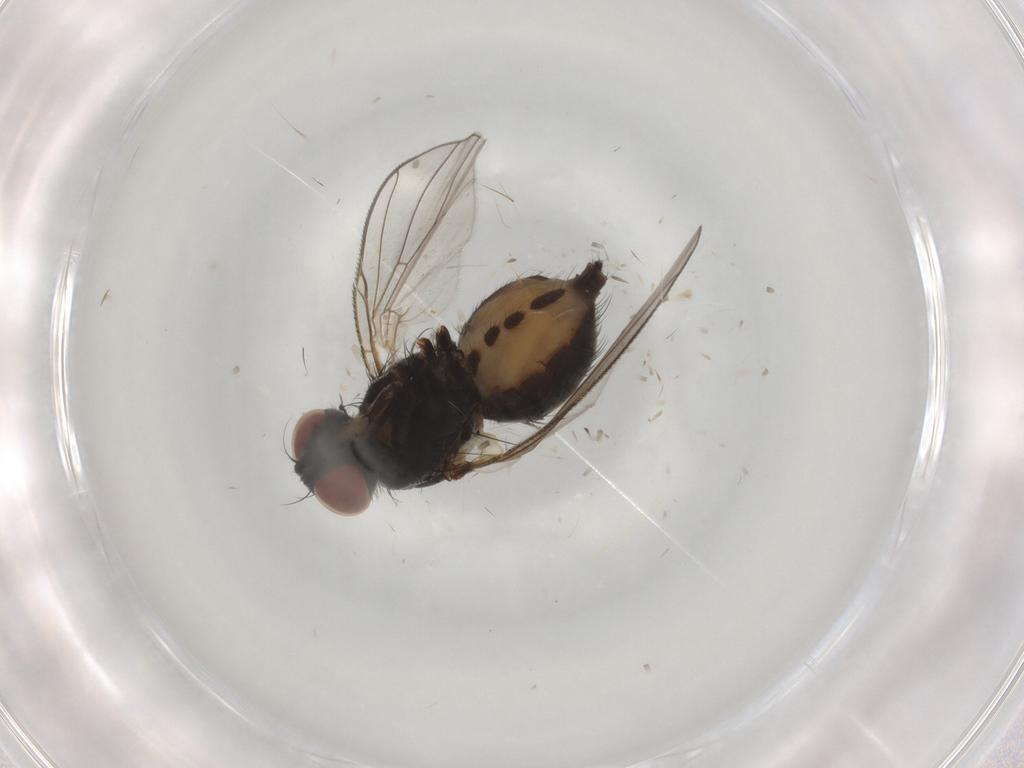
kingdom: Animalia
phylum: Arthropoda
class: Insecta
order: Diptera
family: Muscidae
